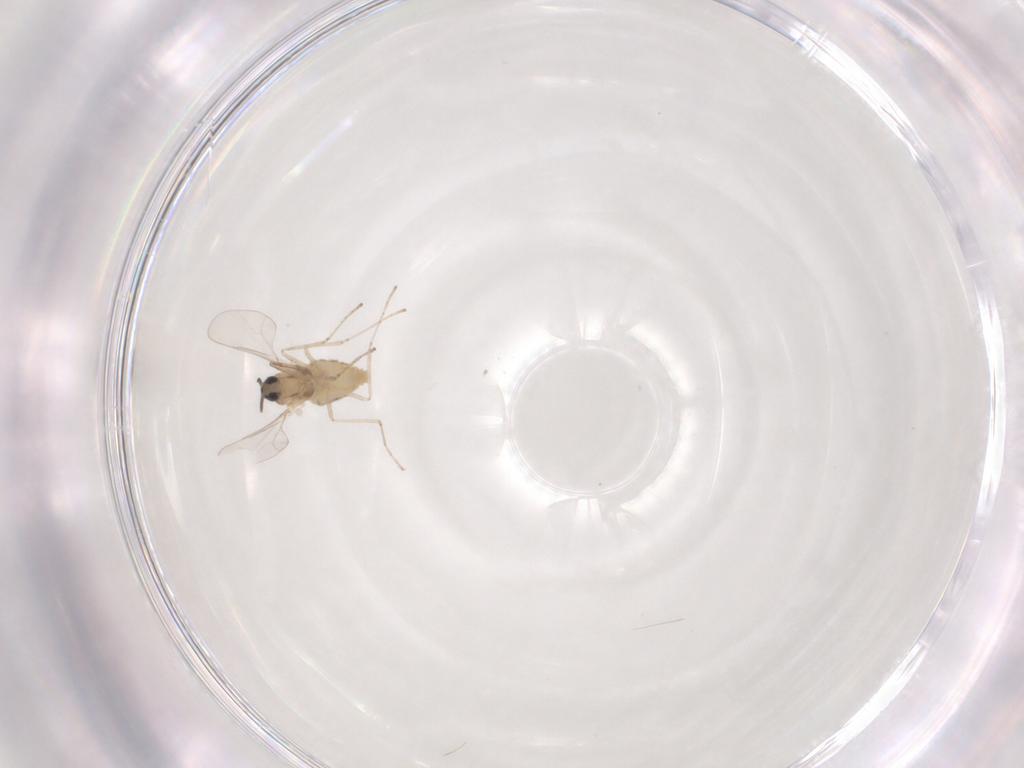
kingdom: Animalia
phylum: Arthropoda
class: Insecta
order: Diptera
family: Cecidomyiidae
